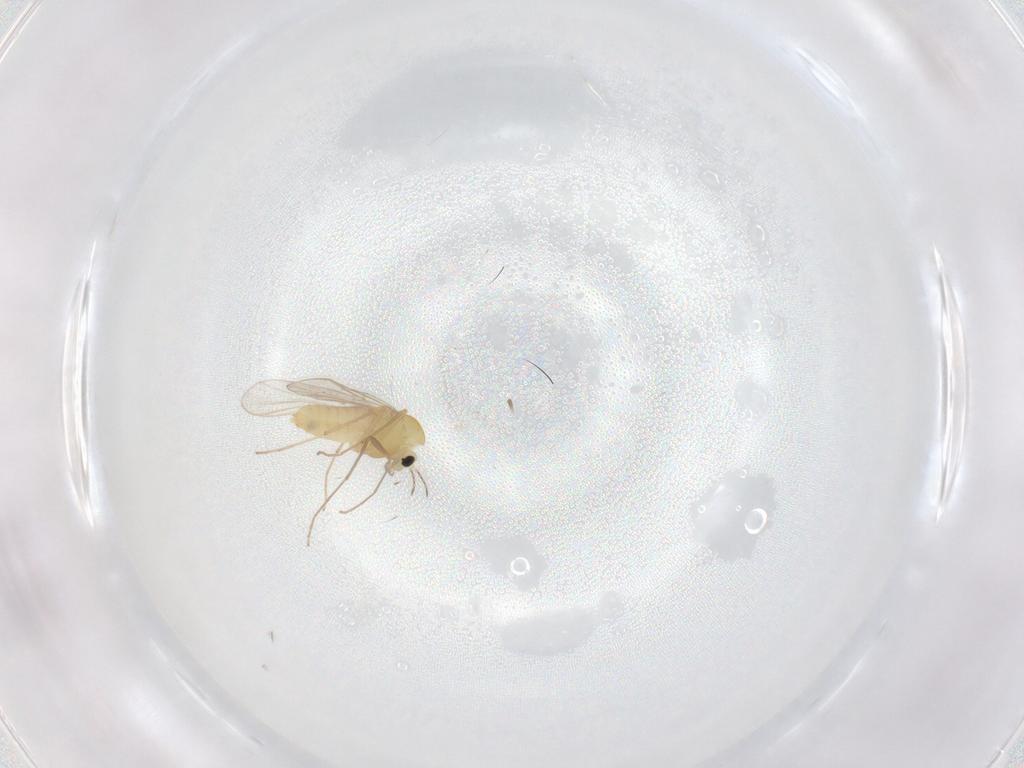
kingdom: Animalia
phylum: Arthropoda
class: Insecta
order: Diptera
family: Chironomidae
